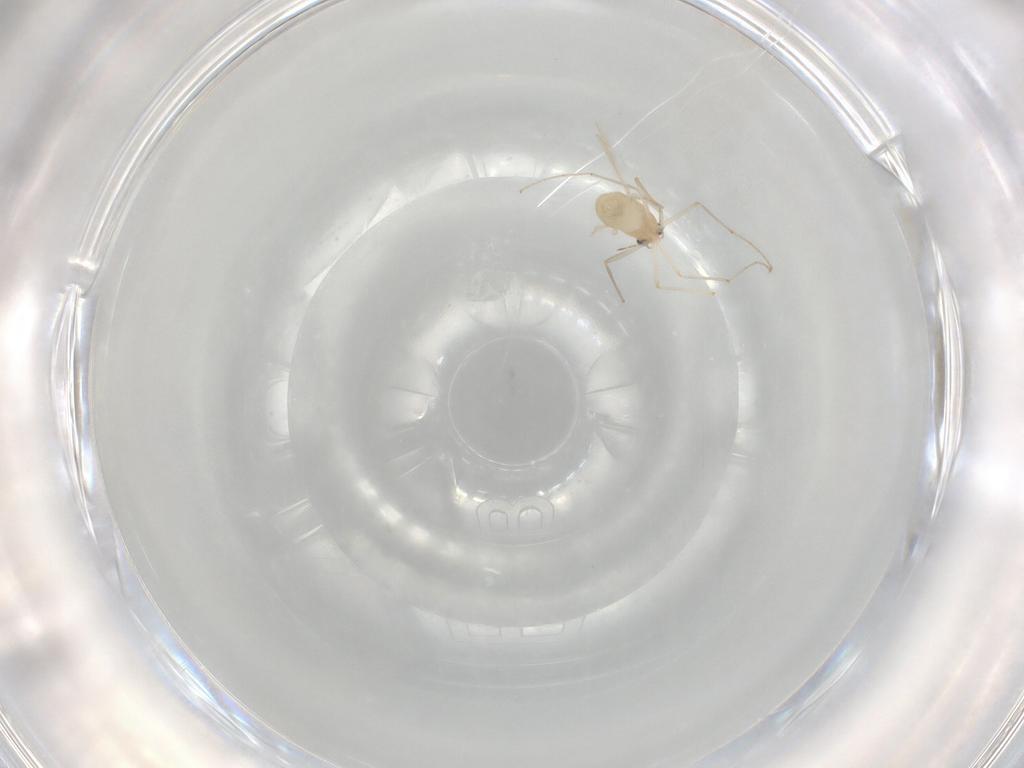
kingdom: Animalia
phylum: Arthropoda
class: Insecta
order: Diptera
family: Chironomidae
